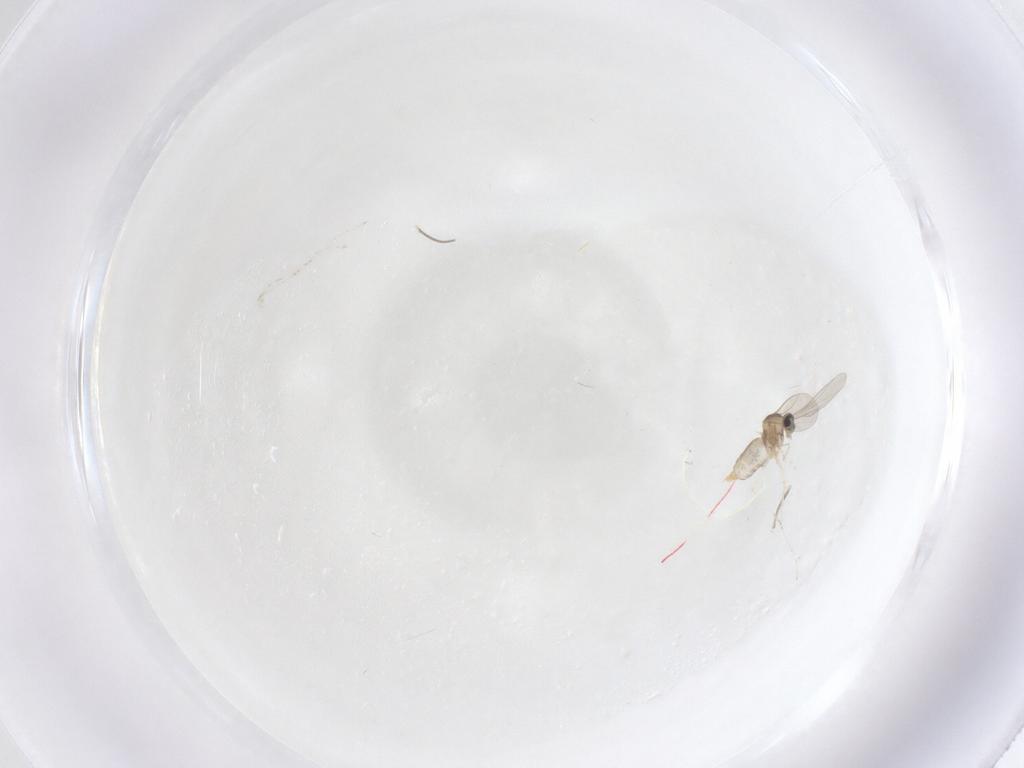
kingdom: Animalia
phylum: Arthropoda
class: Insecta
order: Diptera
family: Cecidomyiidae
